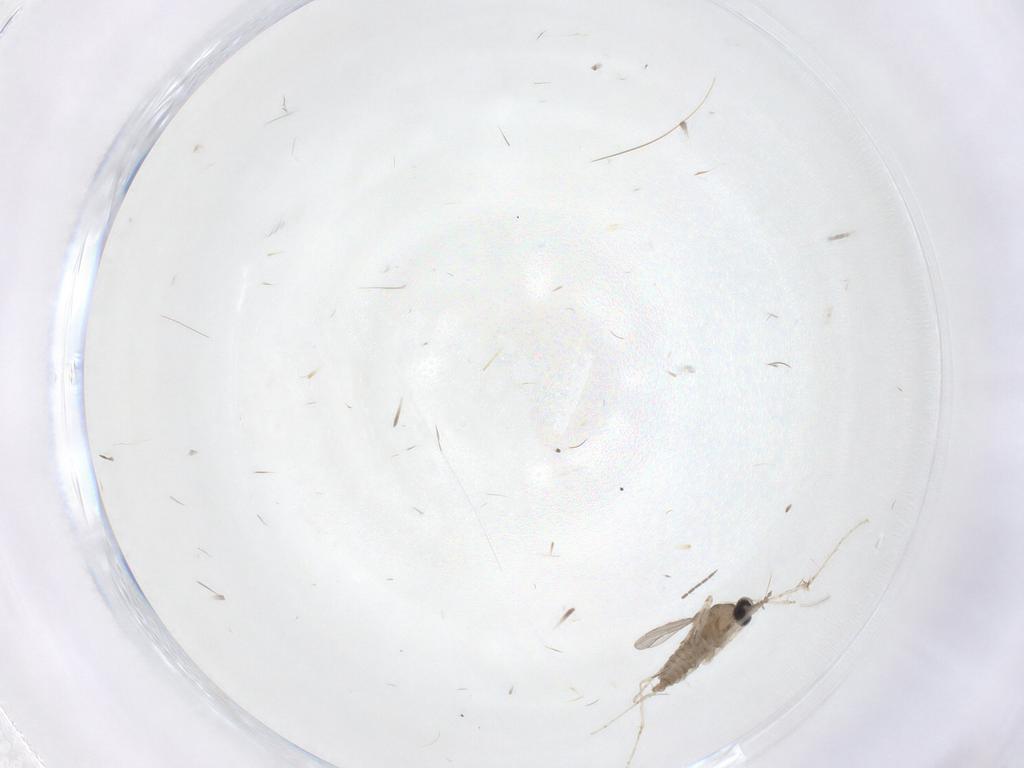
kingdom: Animalia
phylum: Arthropoda
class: Insecta
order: Diptera
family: Cecidomyiidae
